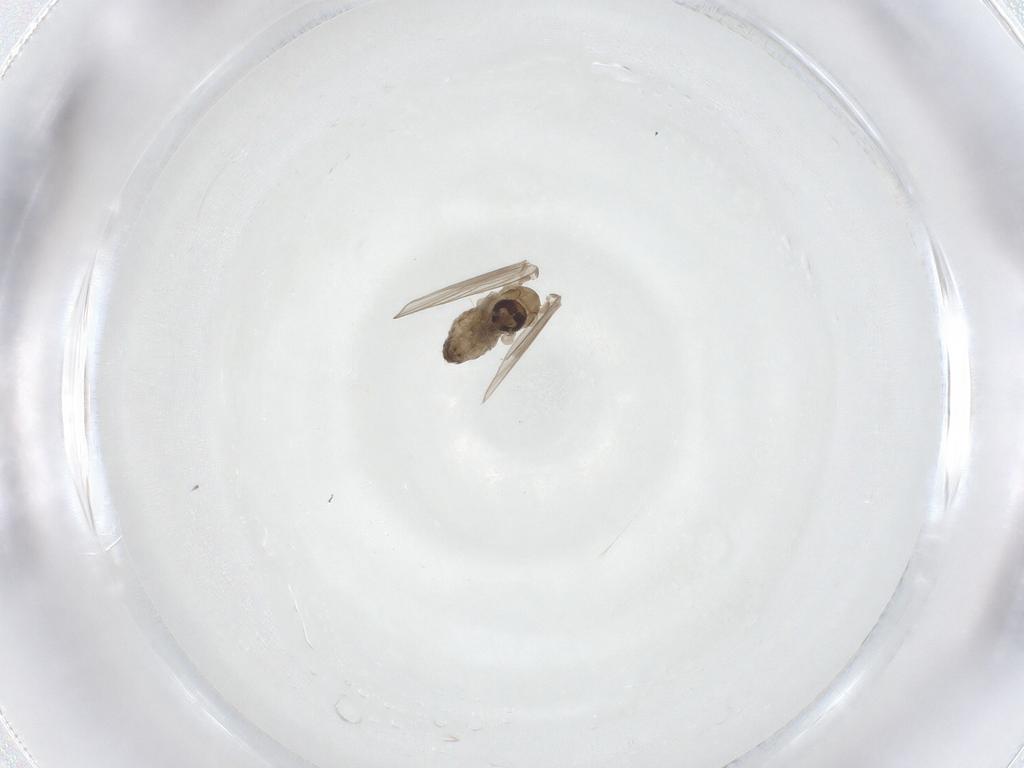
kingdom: Animalia
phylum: Arthropoda
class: Insecta
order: Diptera
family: Psychodidae
